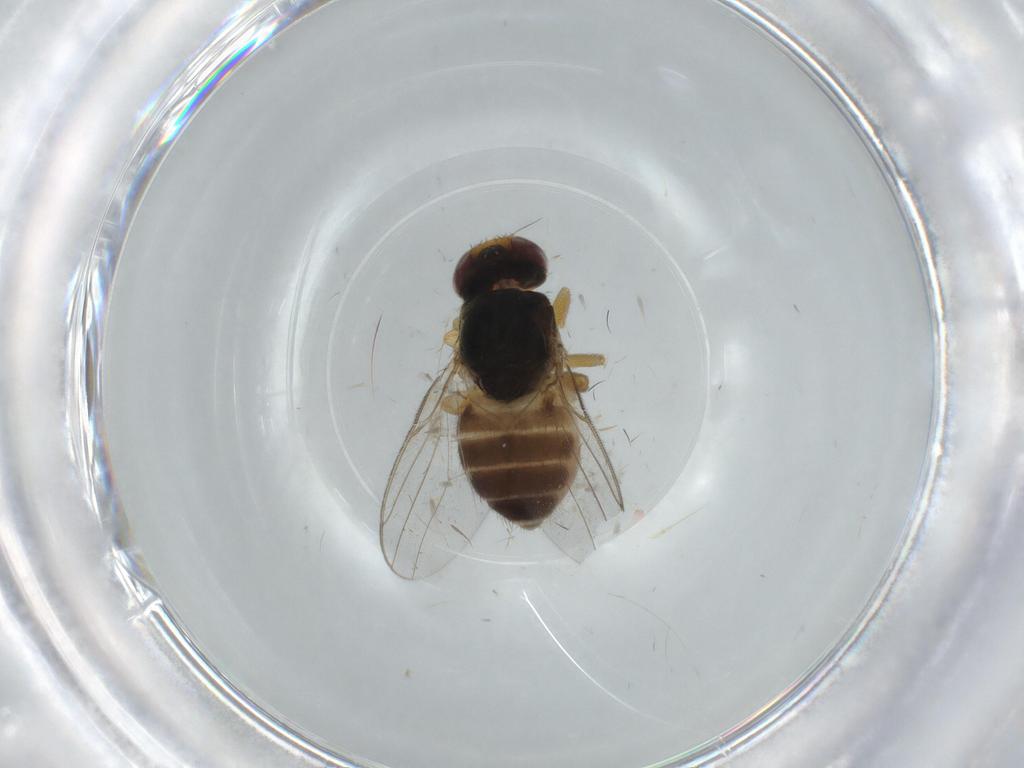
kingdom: Animalia
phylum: Arthropoda
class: Insecta
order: Diptera
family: Chloropidae
